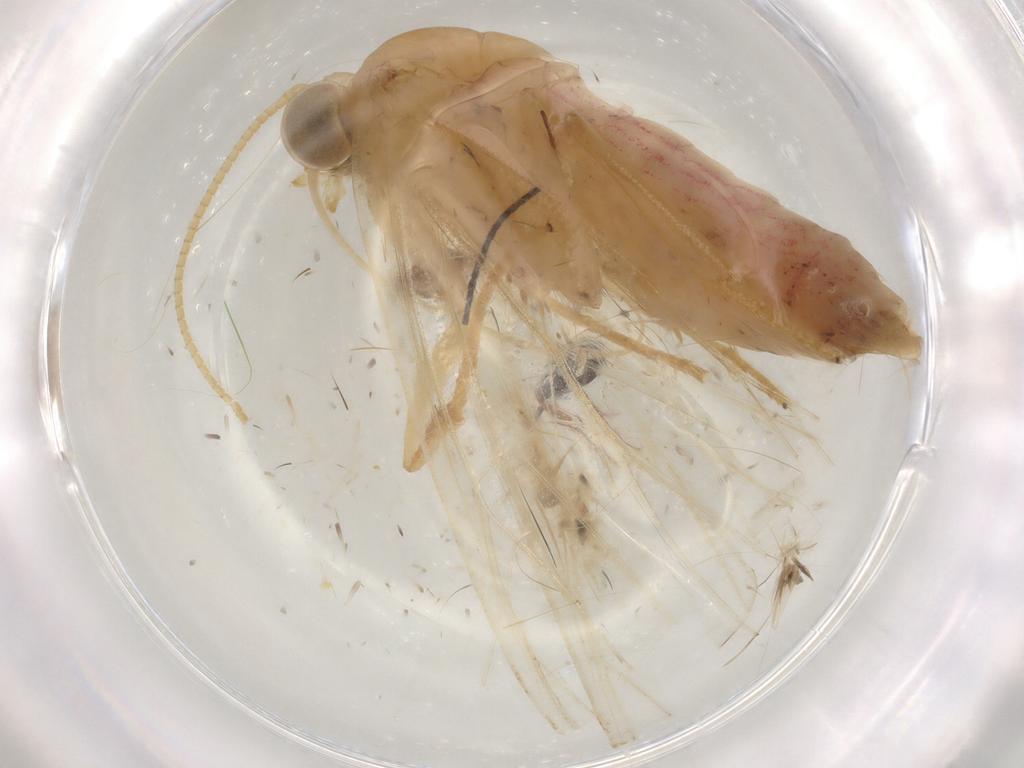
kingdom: Animalia
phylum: Arthropoda
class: Insecta
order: Lepidoptera
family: Geometridae
